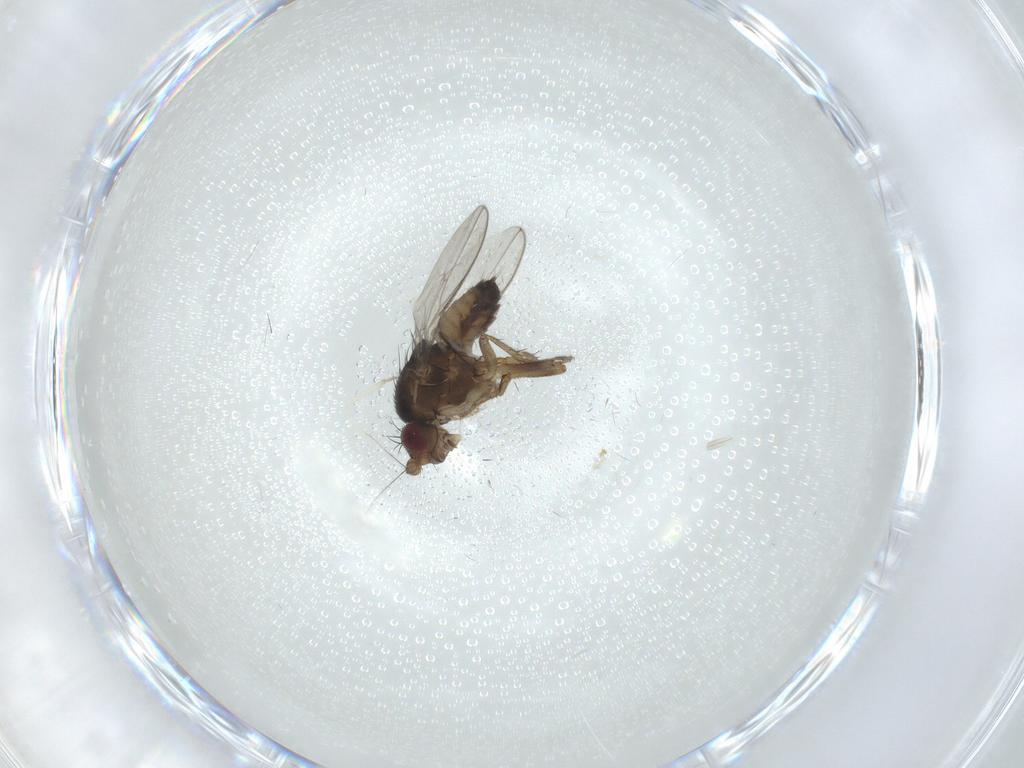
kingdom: Animalia
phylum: Arthropoda
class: Insecta
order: Diptera
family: Sphaeroceridae
